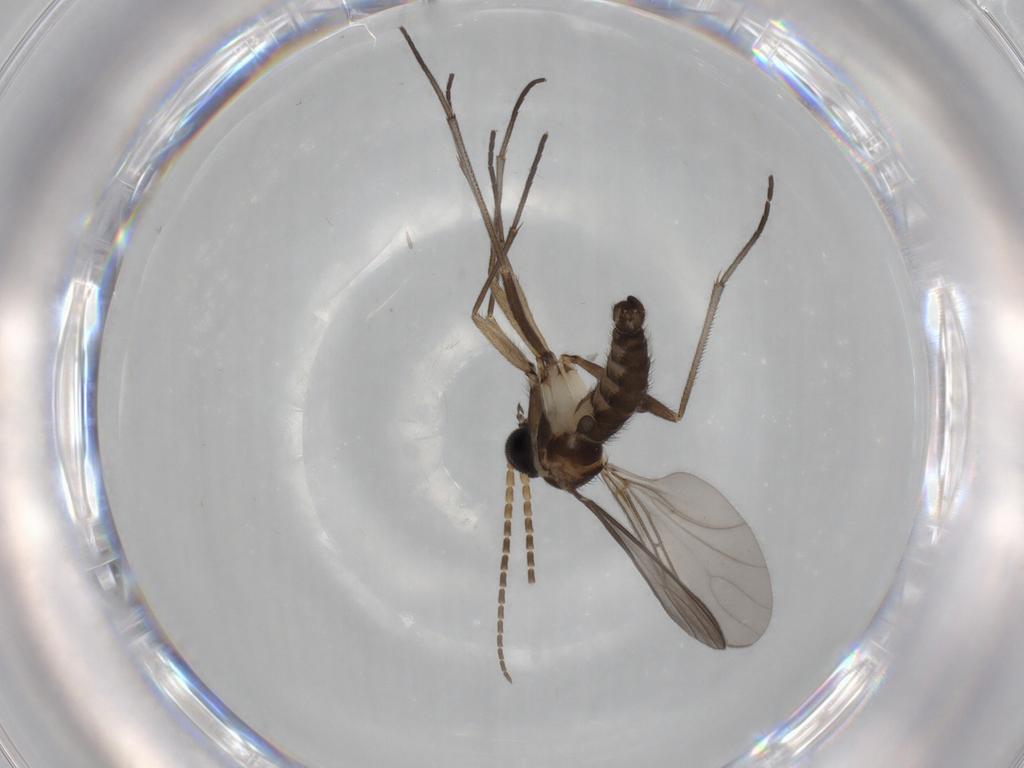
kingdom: Animalia
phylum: Arthropoda
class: Insecta
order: Diptera
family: Sciaridae
